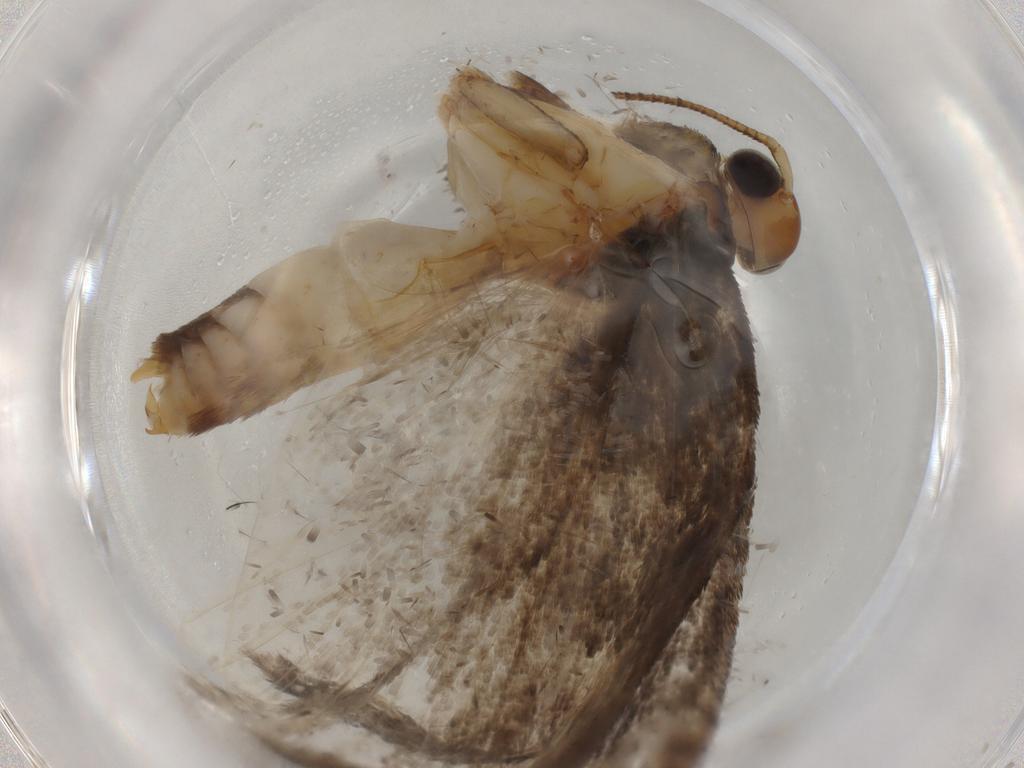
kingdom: Animalia
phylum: Arthropoda
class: Insecta
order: Lepidoptera
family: Oecophoridae
